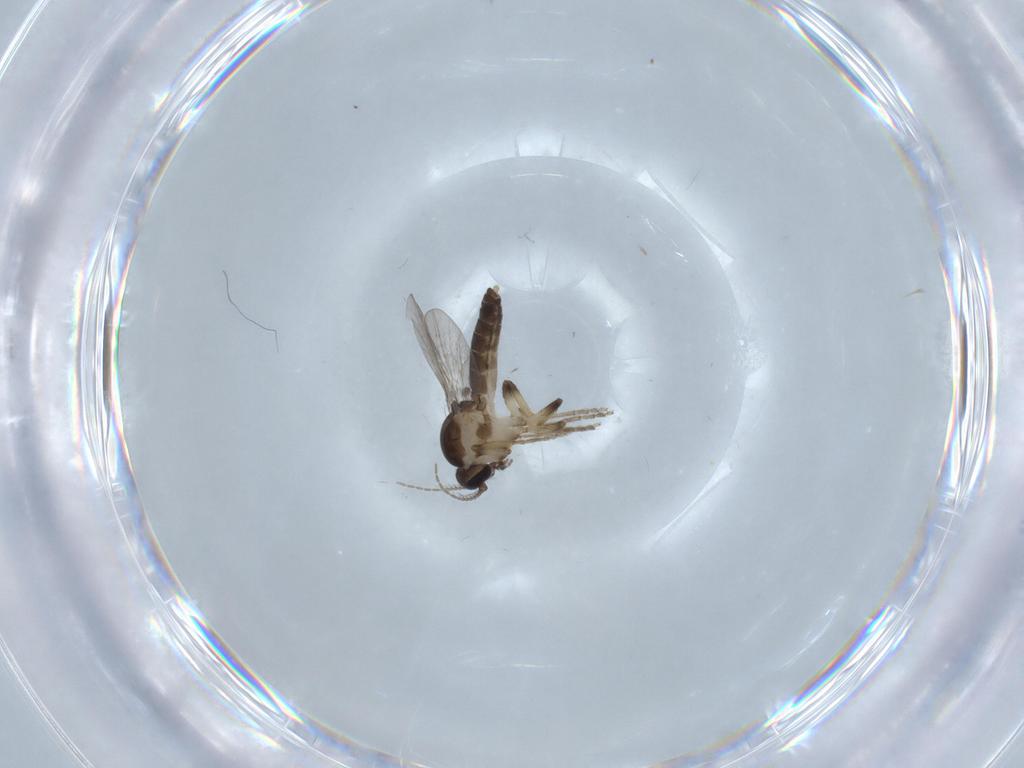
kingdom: Animalia
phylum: Arthropoda
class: Insecta
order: Diptera
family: Ceratopogonidae
